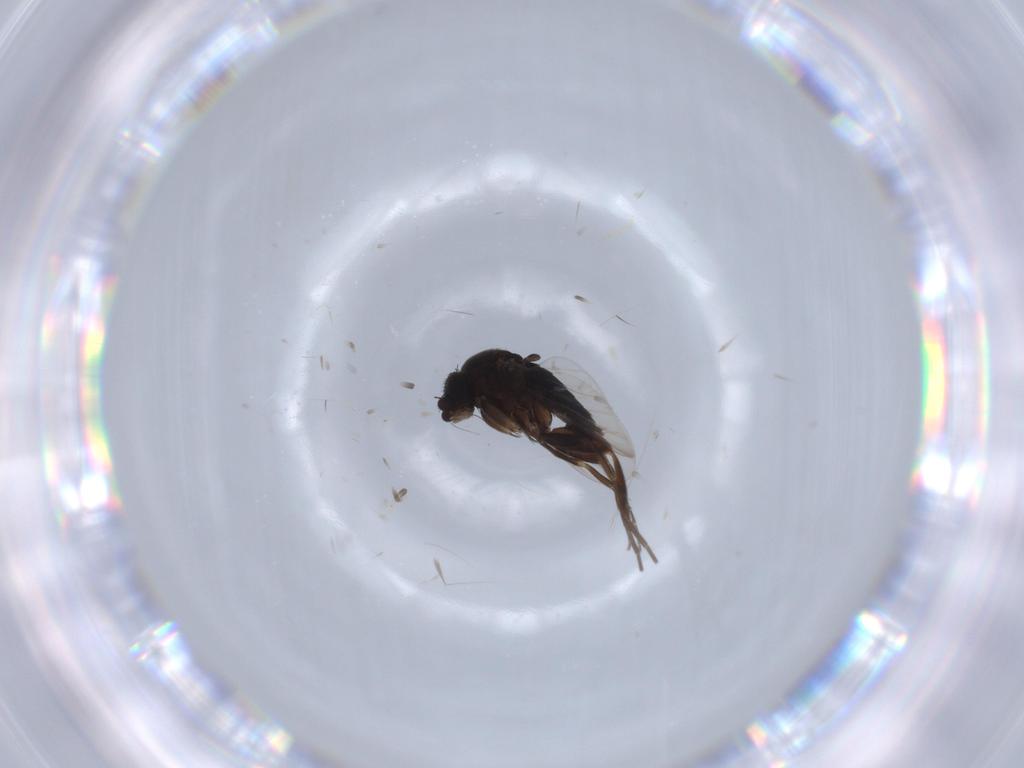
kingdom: Animalia
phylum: Arthropoda
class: Insecta
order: Diptera
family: Phoridae
